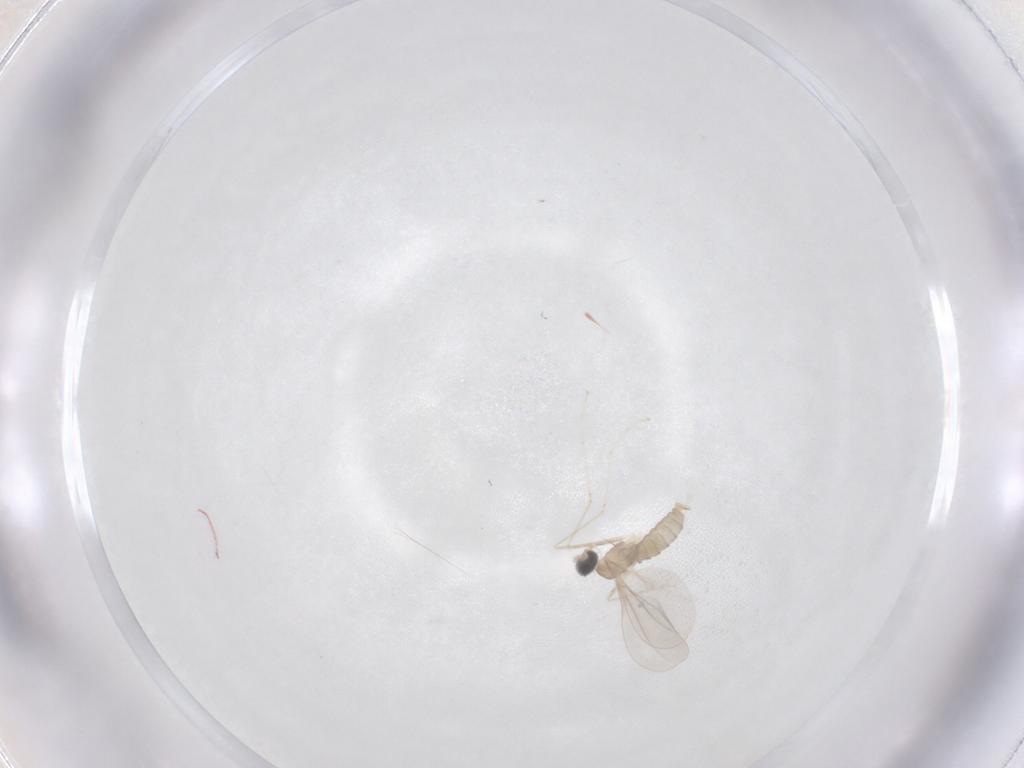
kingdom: Animalia
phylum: Arthropoda
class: Insecta
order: Diptera
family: Cecidomyiidae
